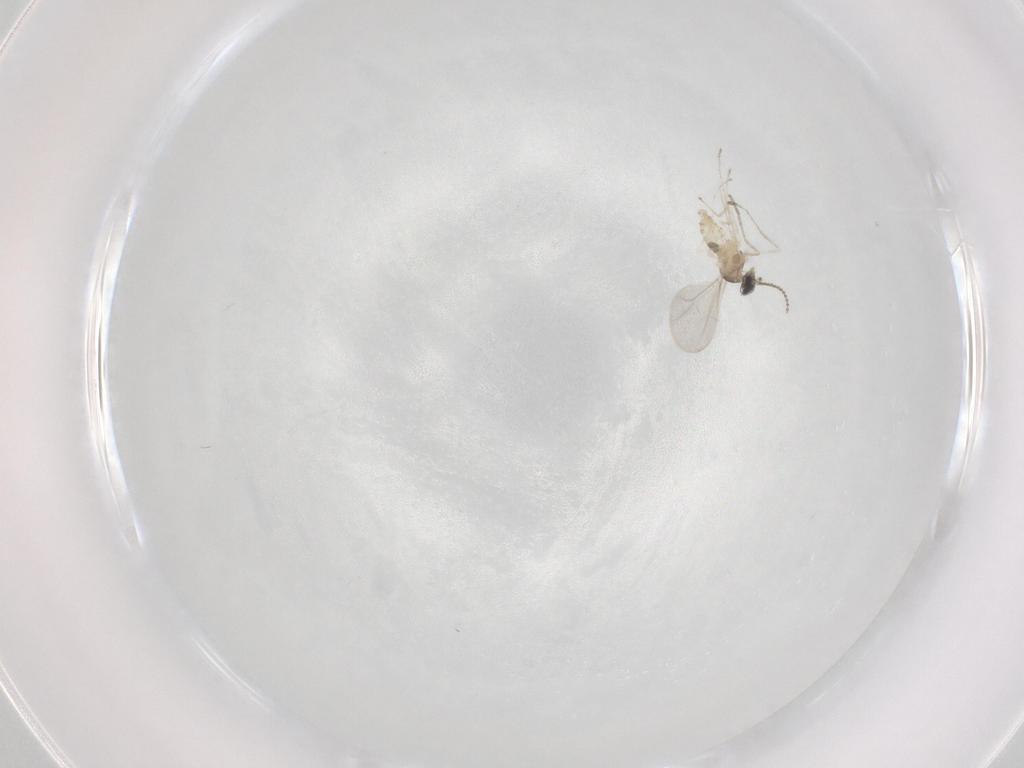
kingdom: Animalia
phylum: Arthropoda
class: Insecta
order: Diptera
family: Cecidomyiidae
